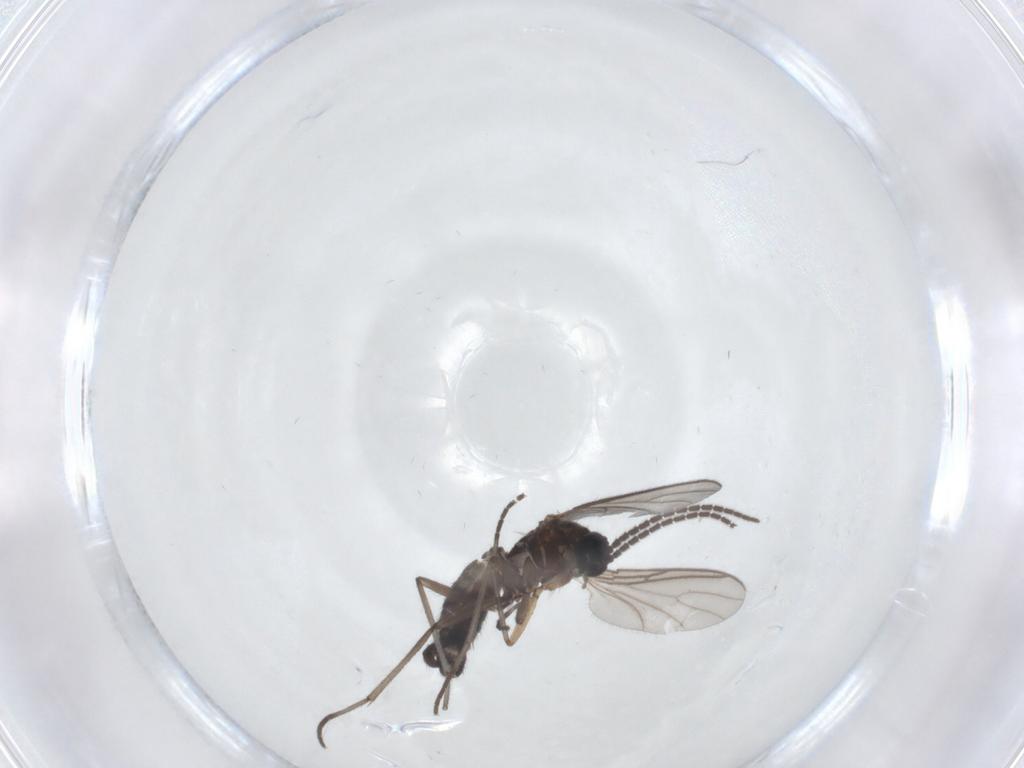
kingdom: Animalia
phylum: Arthropoda
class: Insecta
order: Diptera
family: Sciaridae
